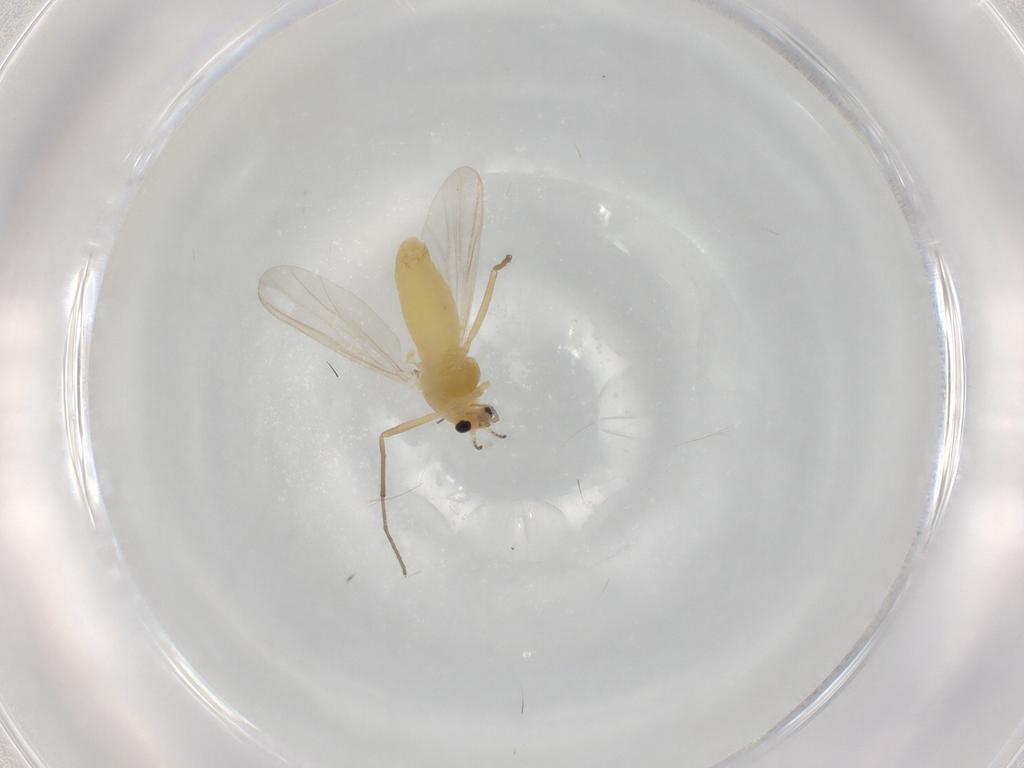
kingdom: Animalia
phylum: Arthropoda
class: Insecta
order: Diptera
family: Chironomidae
